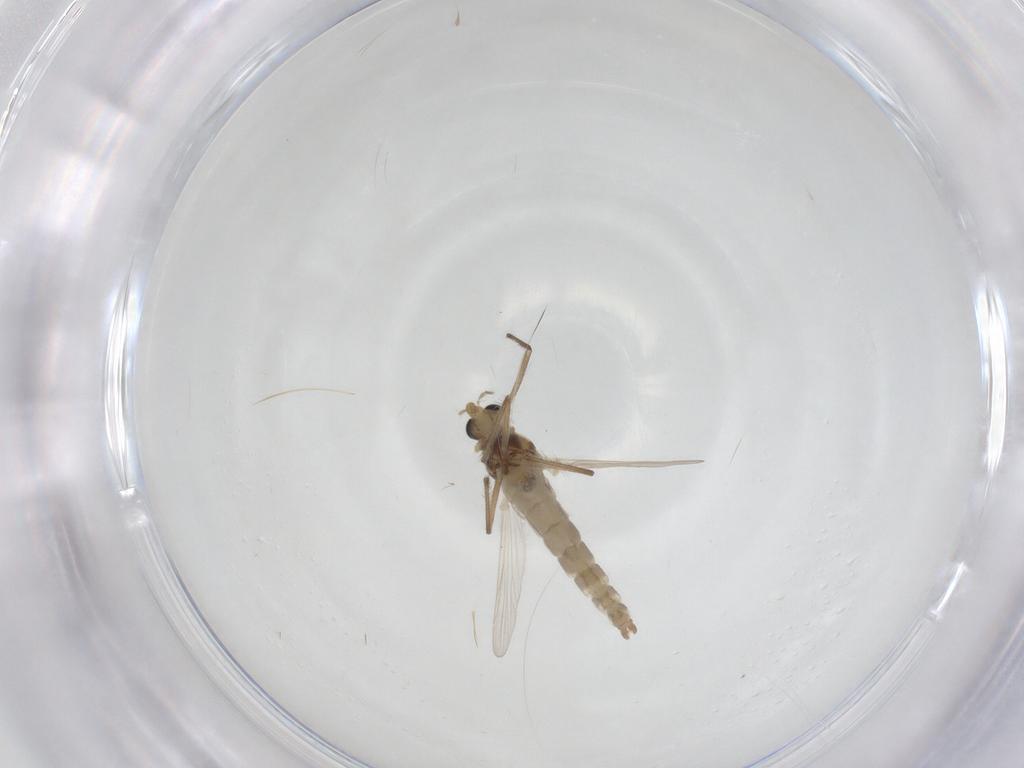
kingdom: Animalia
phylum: Arthropoda
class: Insecta
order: Diptera
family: Chironomidae
